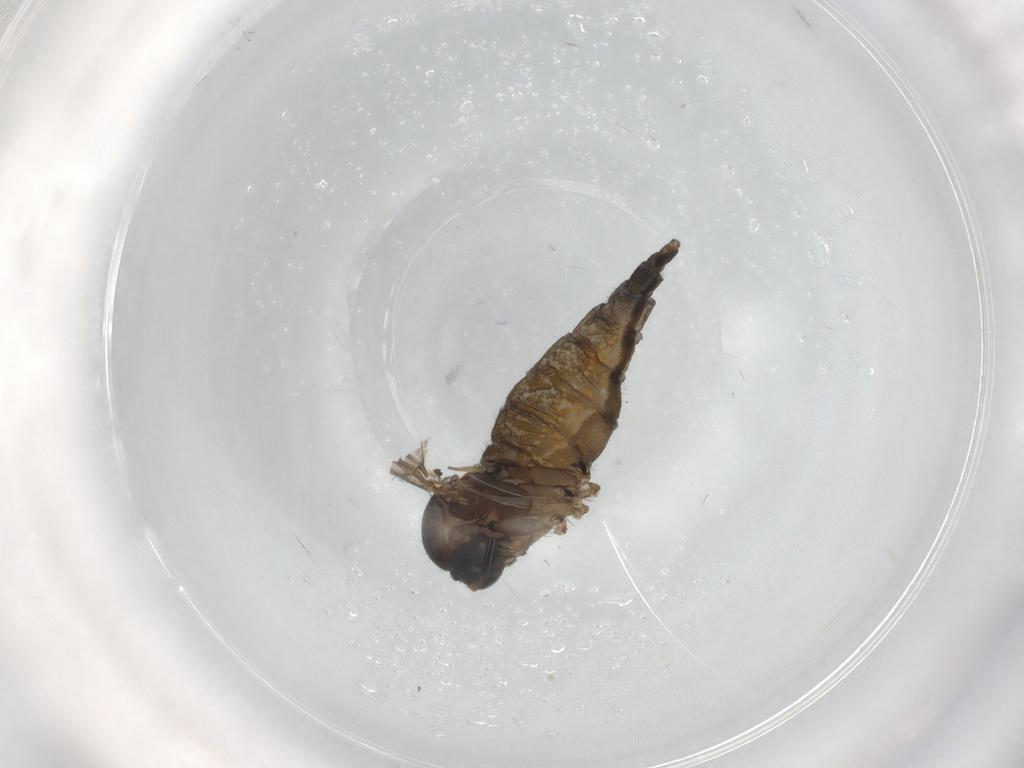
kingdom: Animalia
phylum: Arthropoda
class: Insecta
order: Diptera
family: Sciaridae
